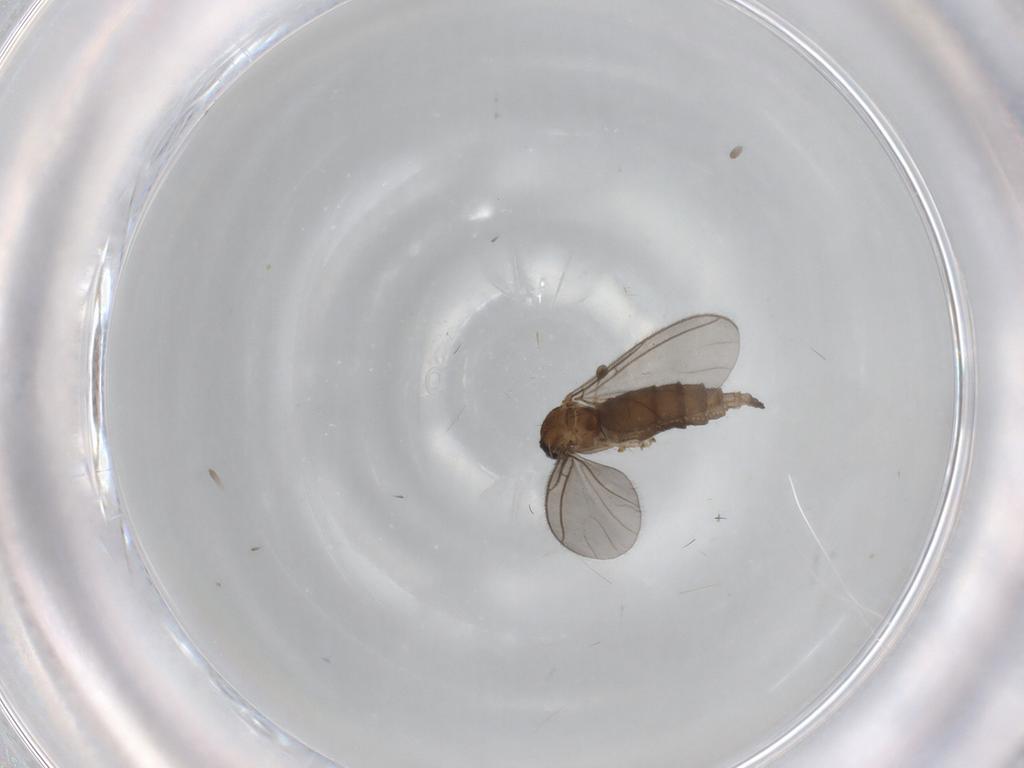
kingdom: Animalia
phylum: Arthropoda
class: Insecta
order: Diptera
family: Sciaridae
